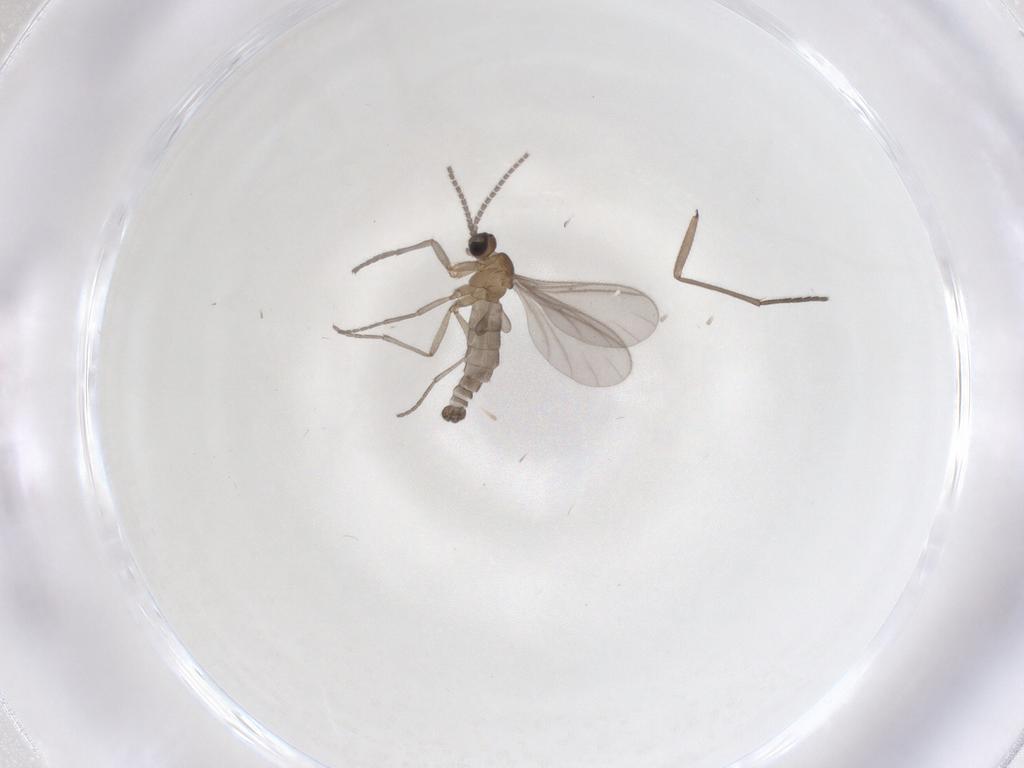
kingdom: Animalia
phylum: Arthropoda
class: Insecta
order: Diptera
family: Sciaridae
